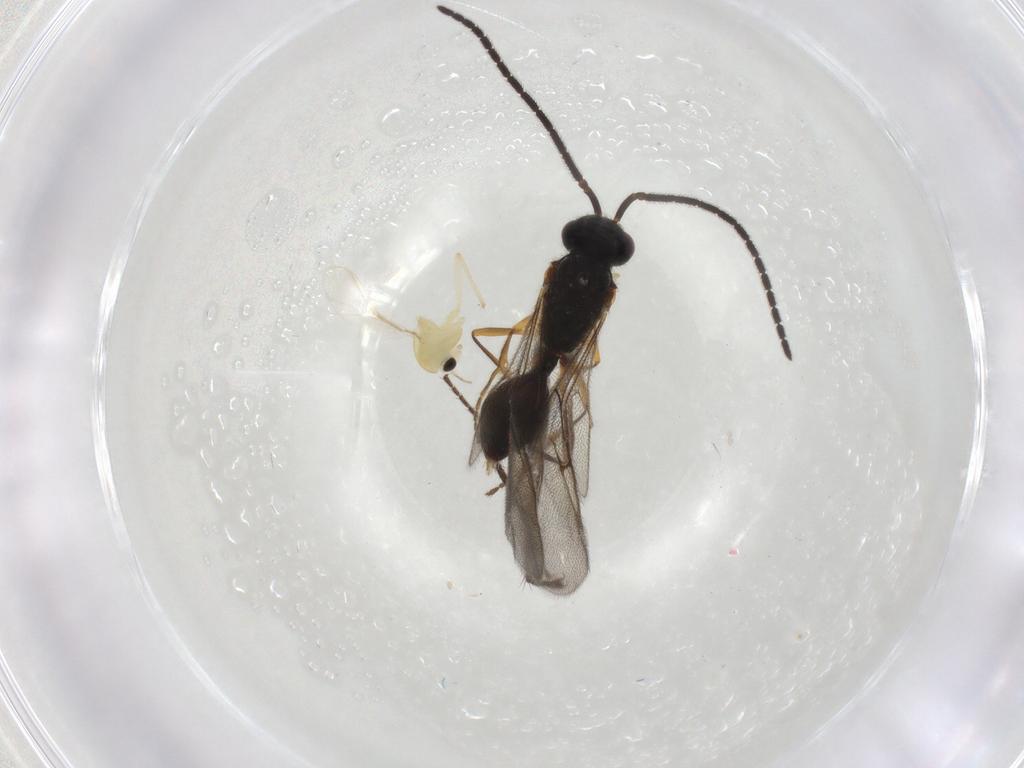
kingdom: Animalia
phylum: Arthropoda
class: Insecta
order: Hymenoptera
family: Diapriidae
